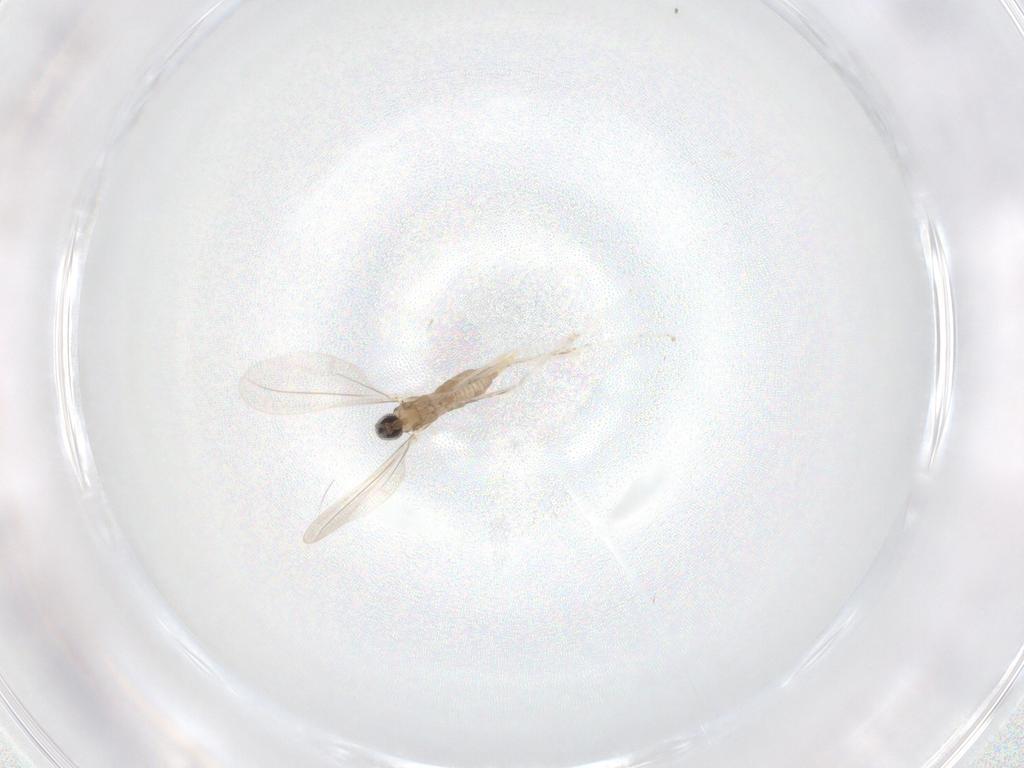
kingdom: Animalia
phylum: Arthropoda
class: Insecta
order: Diptera
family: Cecidomyiidae
